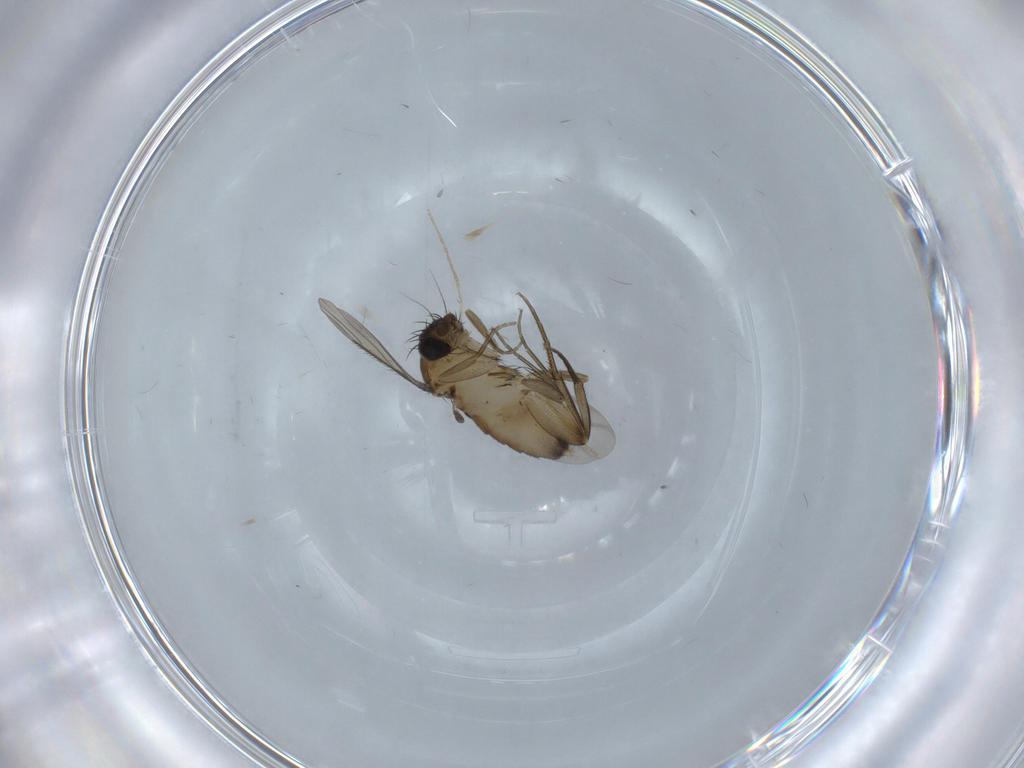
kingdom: Animalia
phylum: Arthropoda
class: Insecta
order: Diptera
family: Phoridae
